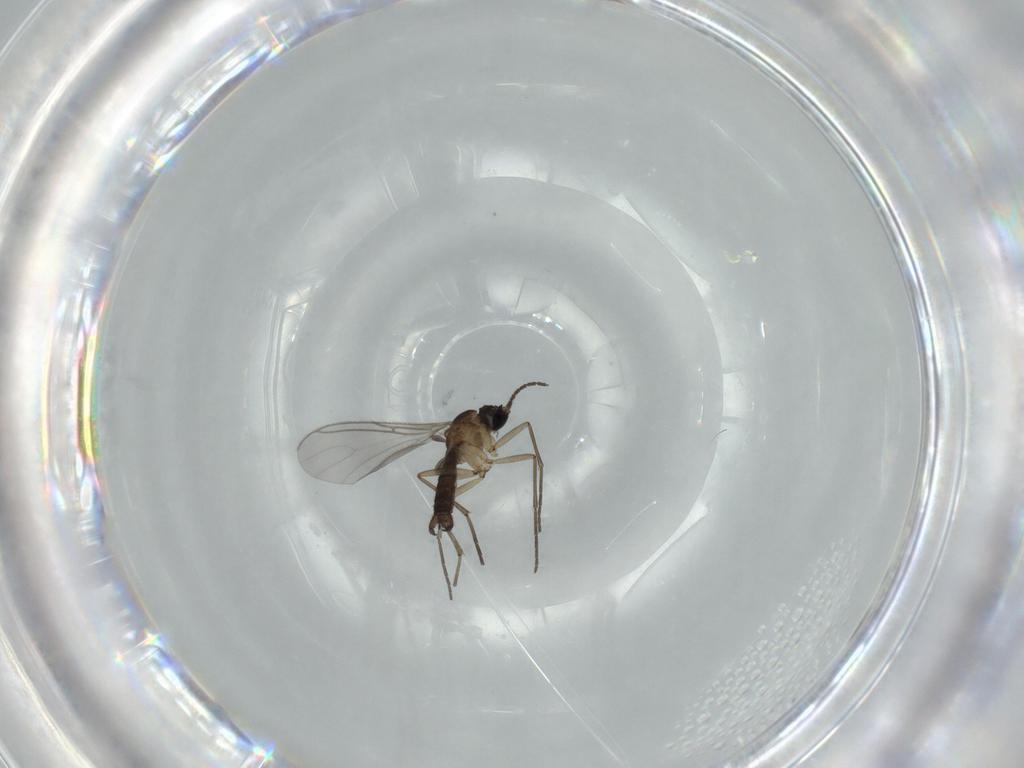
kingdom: Animalia
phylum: Arthropoda
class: Insecta
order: Diptera
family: Sciaridae
